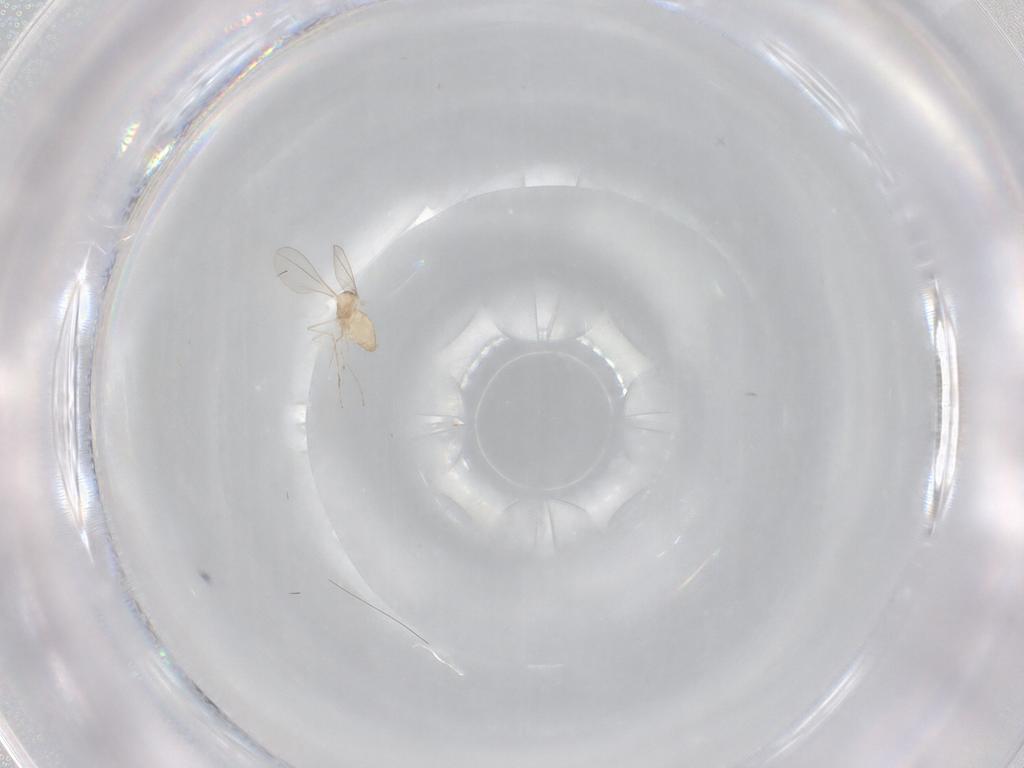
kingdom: Animalia
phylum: Arthropoda
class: Insecta
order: Diptera
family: Sciaridae
